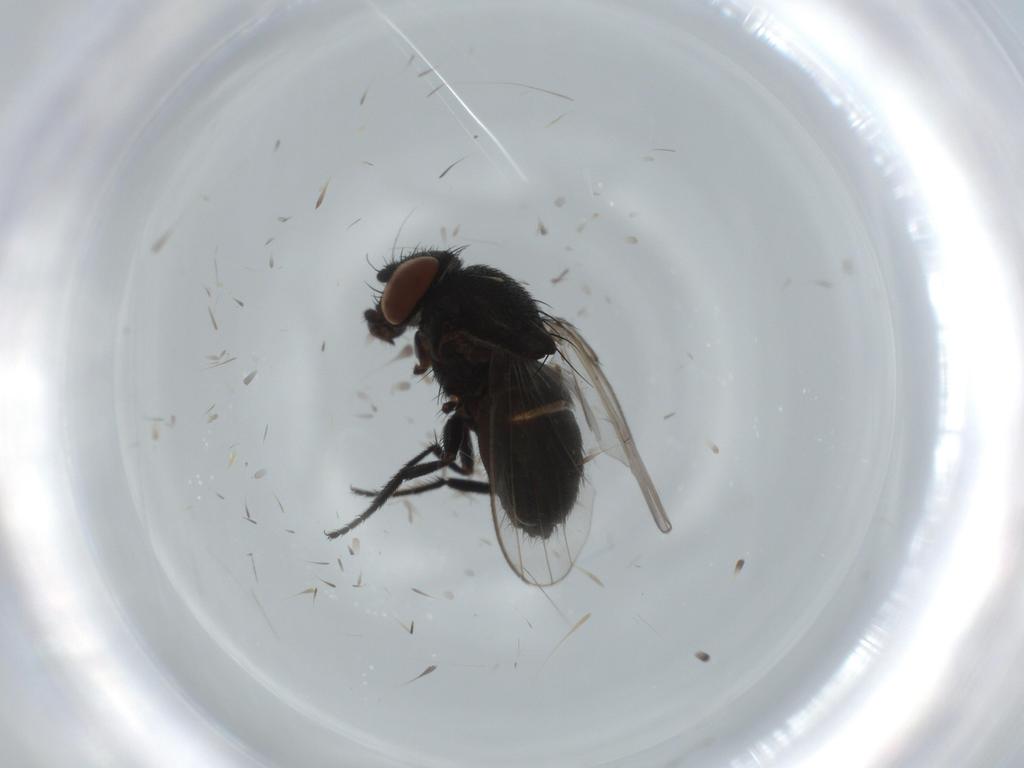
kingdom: Animalia
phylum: Arthropoda
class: Insecta
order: Diptera
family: Milichiidae
